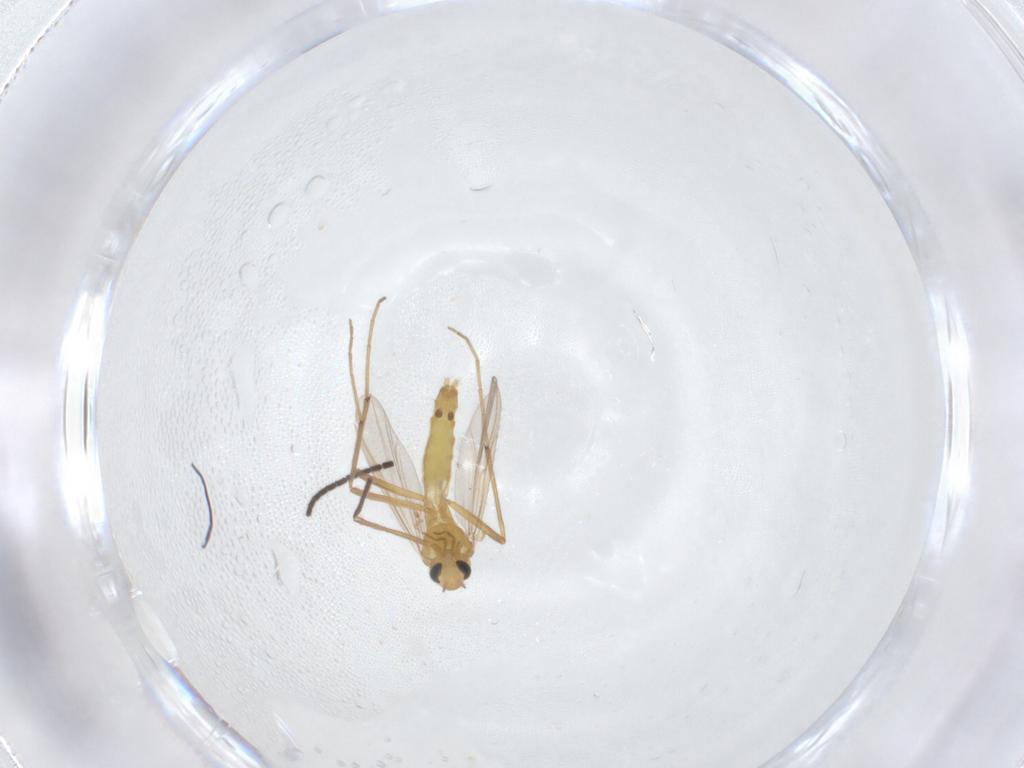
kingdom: Animalia
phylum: Arthropoda
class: Insecta
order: Diptera
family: Chironomidae
